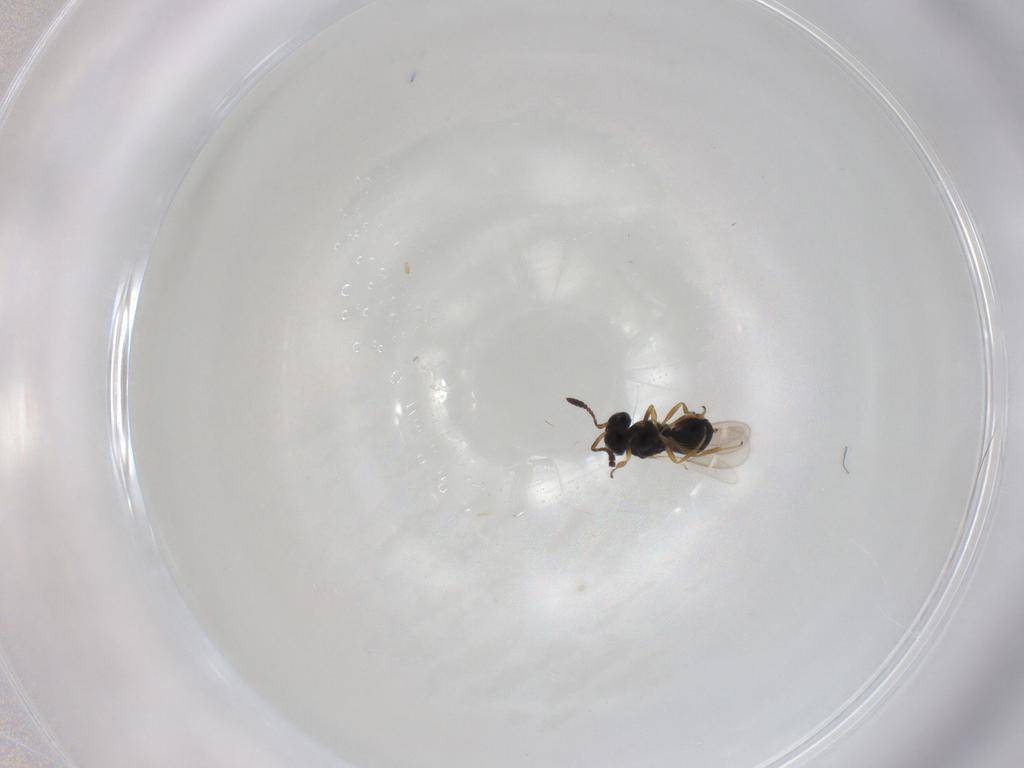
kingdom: Animalia
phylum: Arthropoda
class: Insecta
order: Hymenoptera
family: Scelionidae
